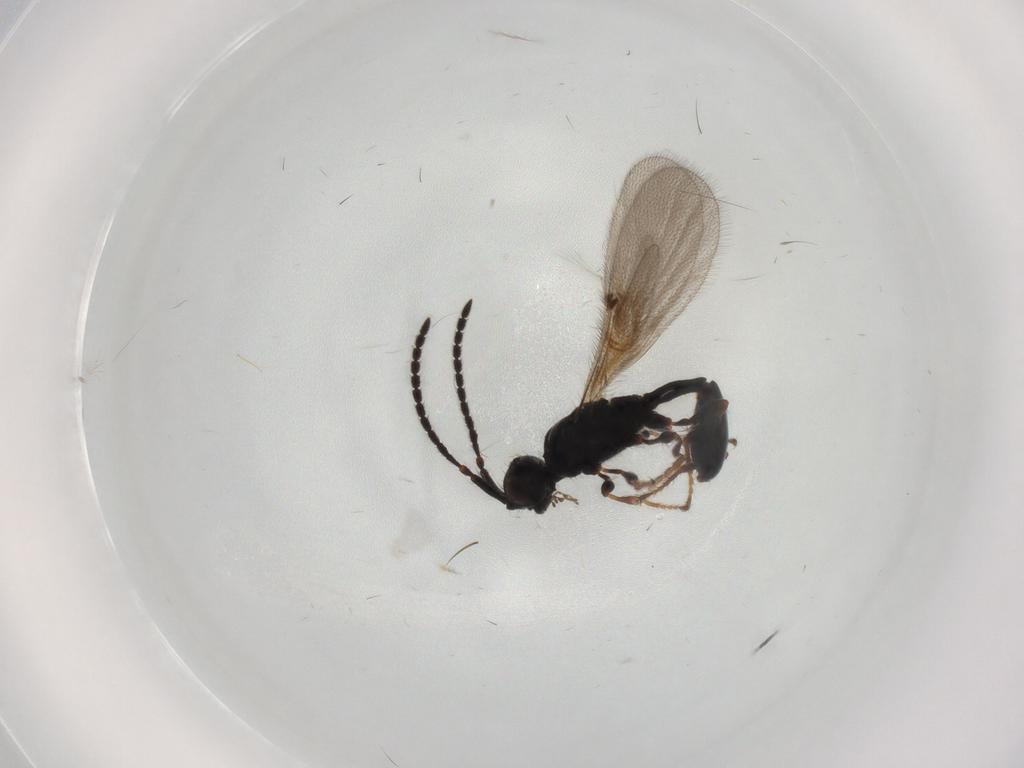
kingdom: Animalia
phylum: Arthropoda
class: Insecta
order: Hymenoptera
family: Diapriidae
